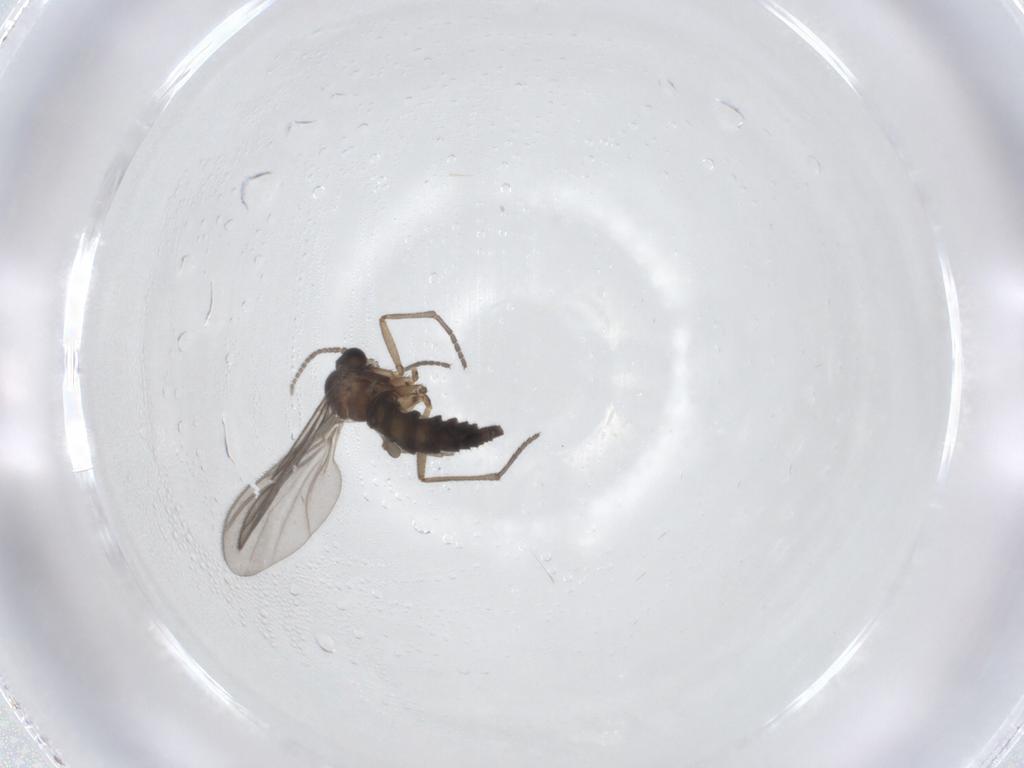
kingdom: Animalia
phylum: Arthropoda
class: Insecta
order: Diptera
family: Sciaridae
